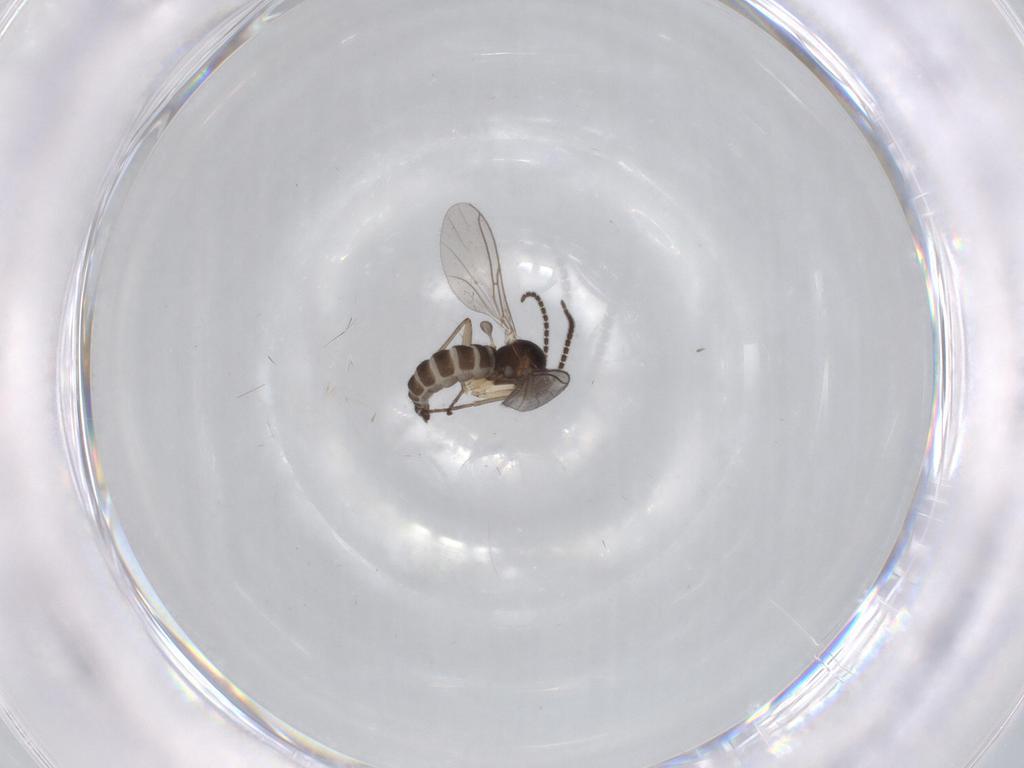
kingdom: Animalia
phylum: Arthropoda
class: Insecta
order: Diptera
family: Sciaridae
